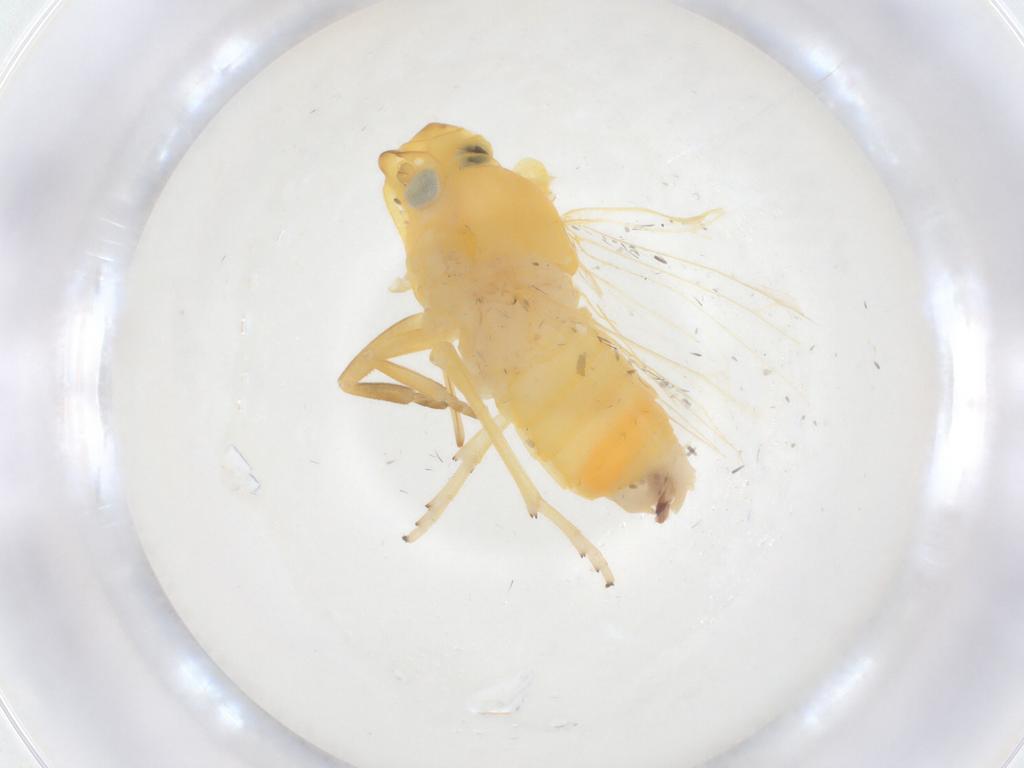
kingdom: Animalia
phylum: Arthropoda
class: Insecta
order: Hemiptera
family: Cixiidae
